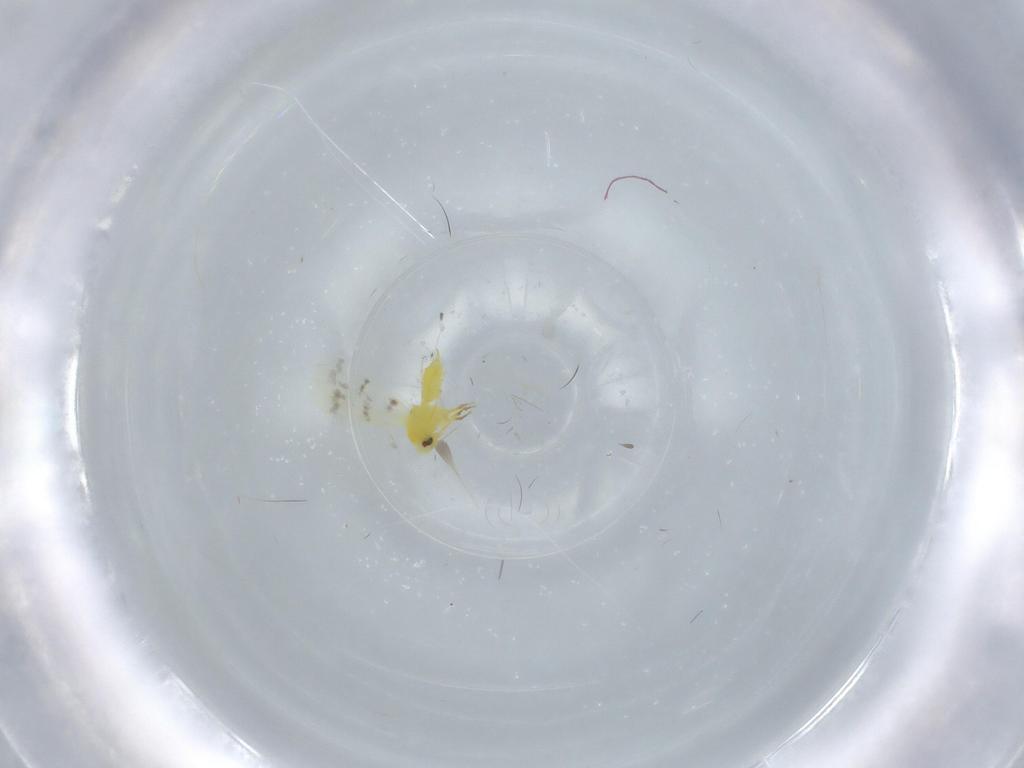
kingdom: Animalia
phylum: Arthropoda
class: Insecta
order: Hemiptera
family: Aleyrodidae
